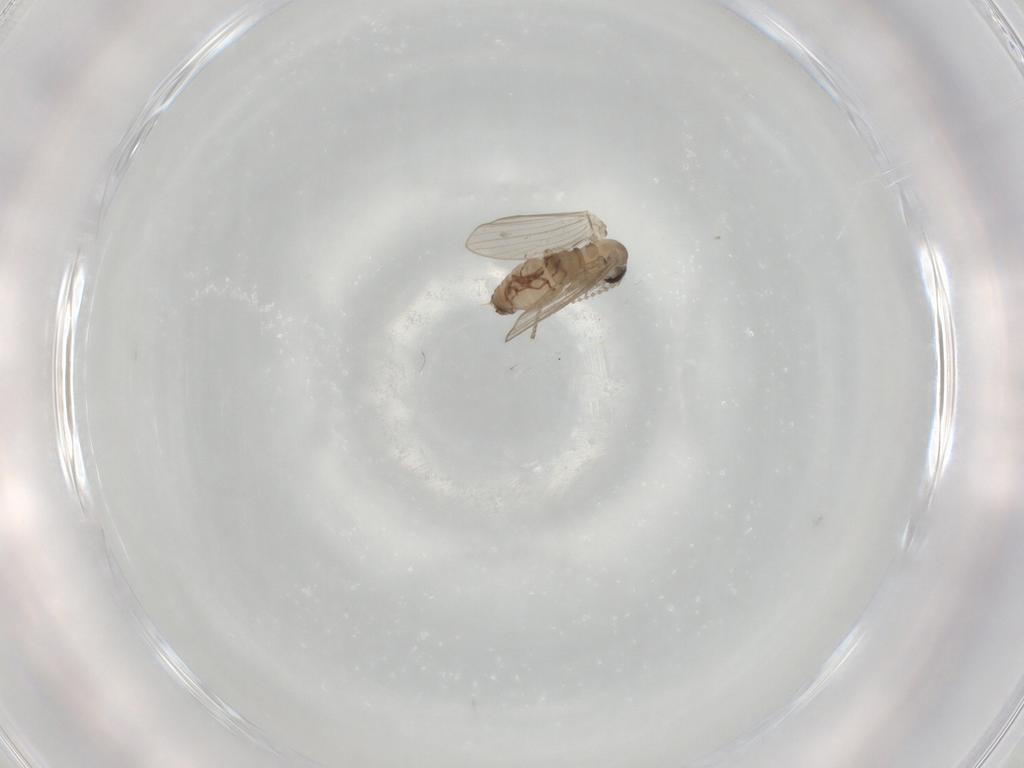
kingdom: Animalia
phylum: Arthropoda
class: Insecta
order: Diptera
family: Psychodidae
